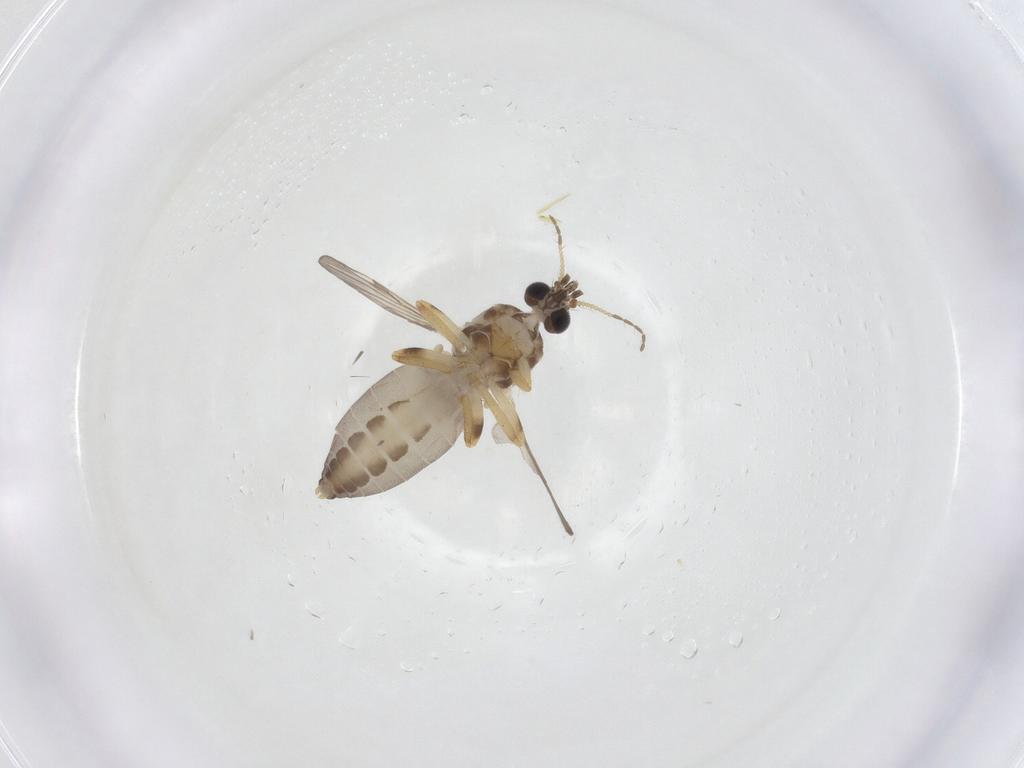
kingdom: Animalia
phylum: Arthropoda
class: Insecta
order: Diptera
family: Ceratopogonidae
